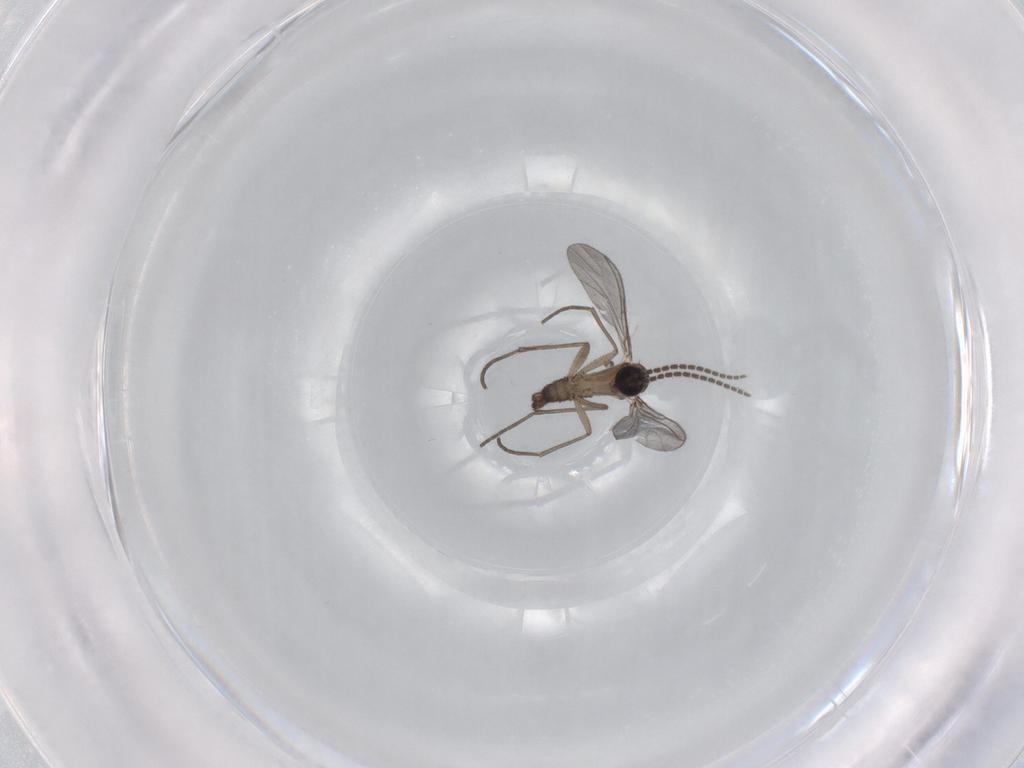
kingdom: Animalia
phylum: Arthropoda
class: Insecta
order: Diptera
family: Sciaridae
